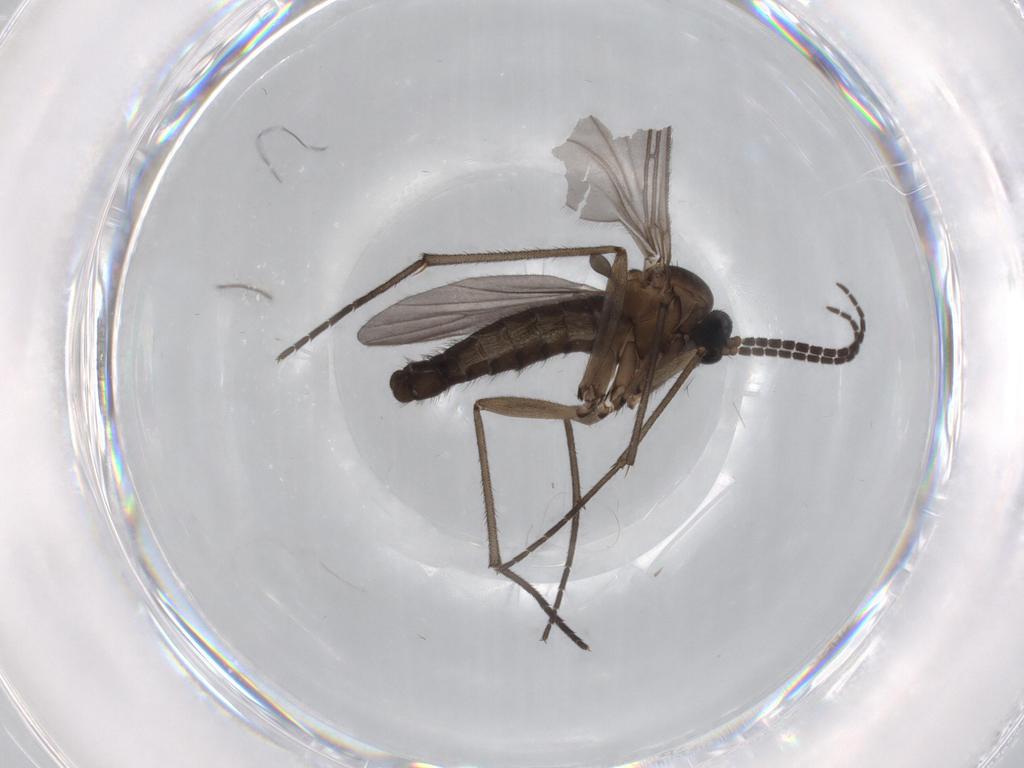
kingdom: Animalia
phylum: Arthropoda
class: Insecta
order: Diptera
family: Sciaridae
